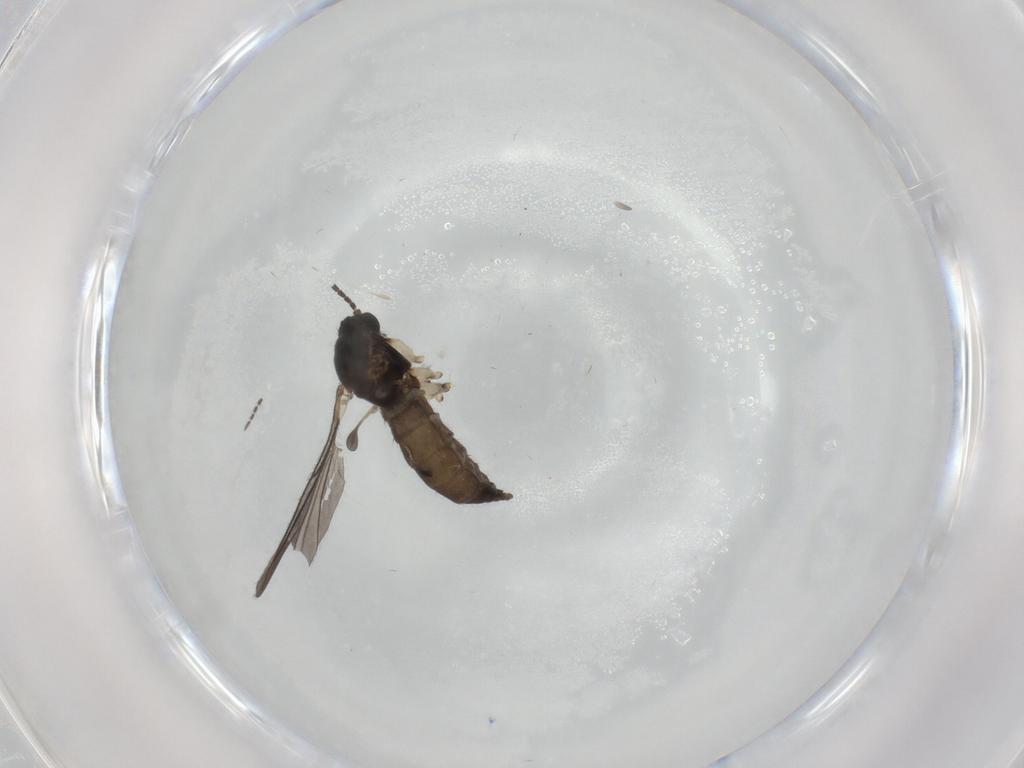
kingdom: Animalia
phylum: Arthropoda
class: Insecta
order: Diptera
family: Sciaridae
